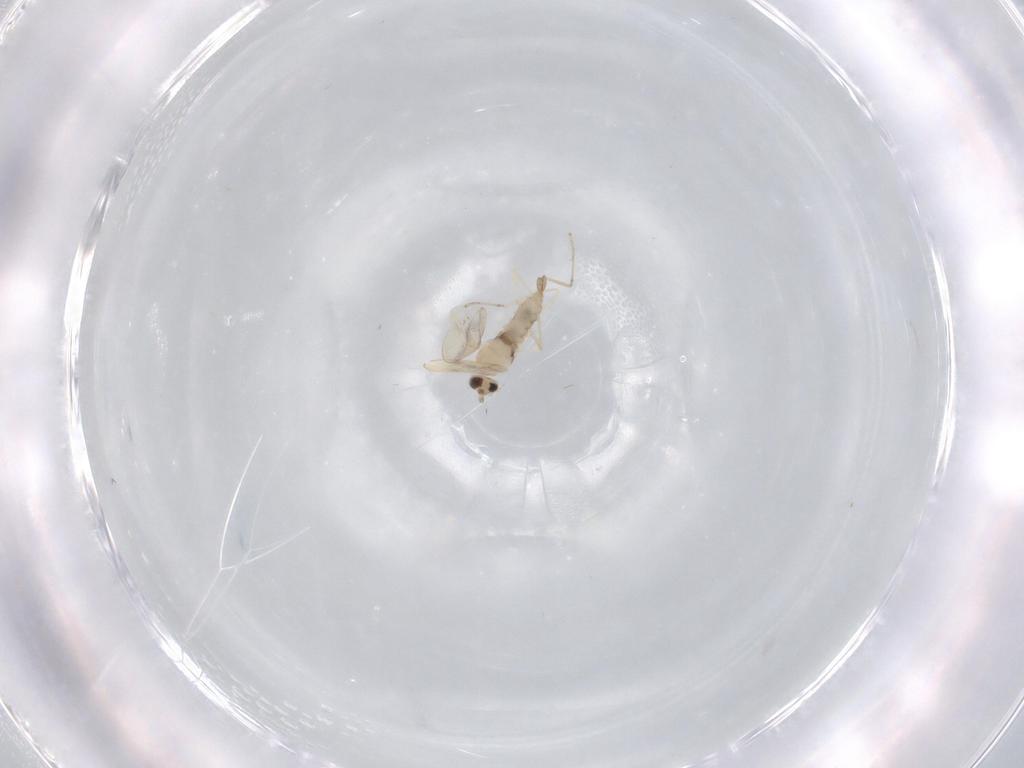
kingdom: Animalia
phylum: Arthropoda
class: Insecta
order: Diptera
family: Cecidomyiidae
